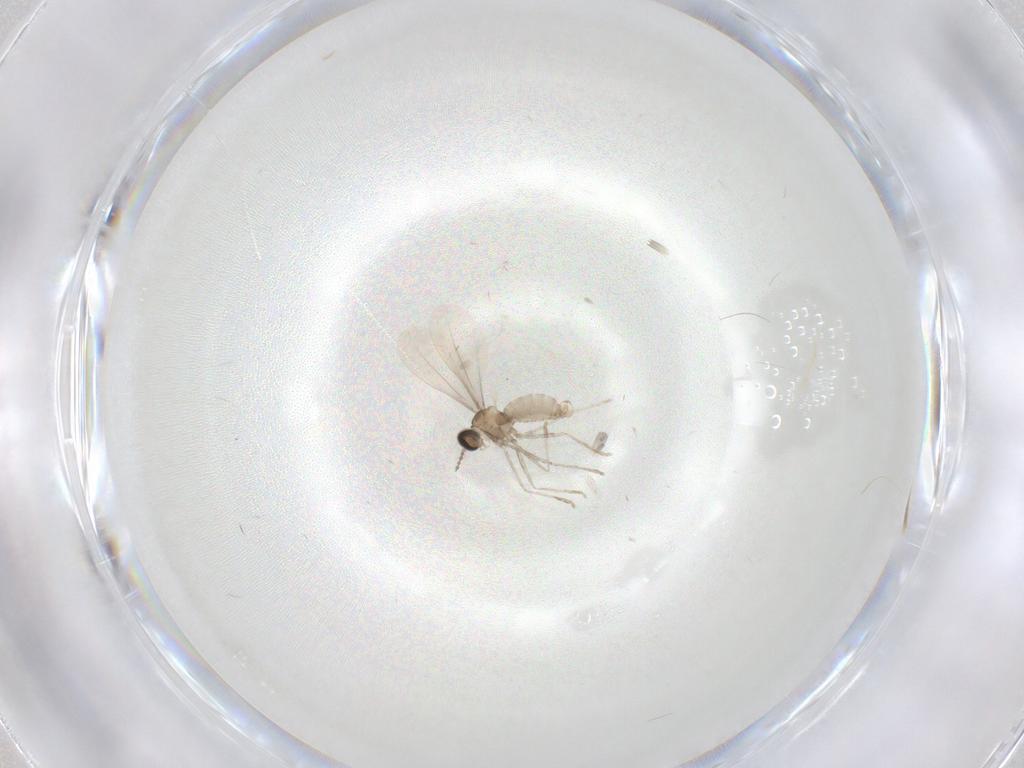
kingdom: Animalia
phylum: Arthropoda
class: Insecta
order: Diptera
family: Cecidomyiidae
